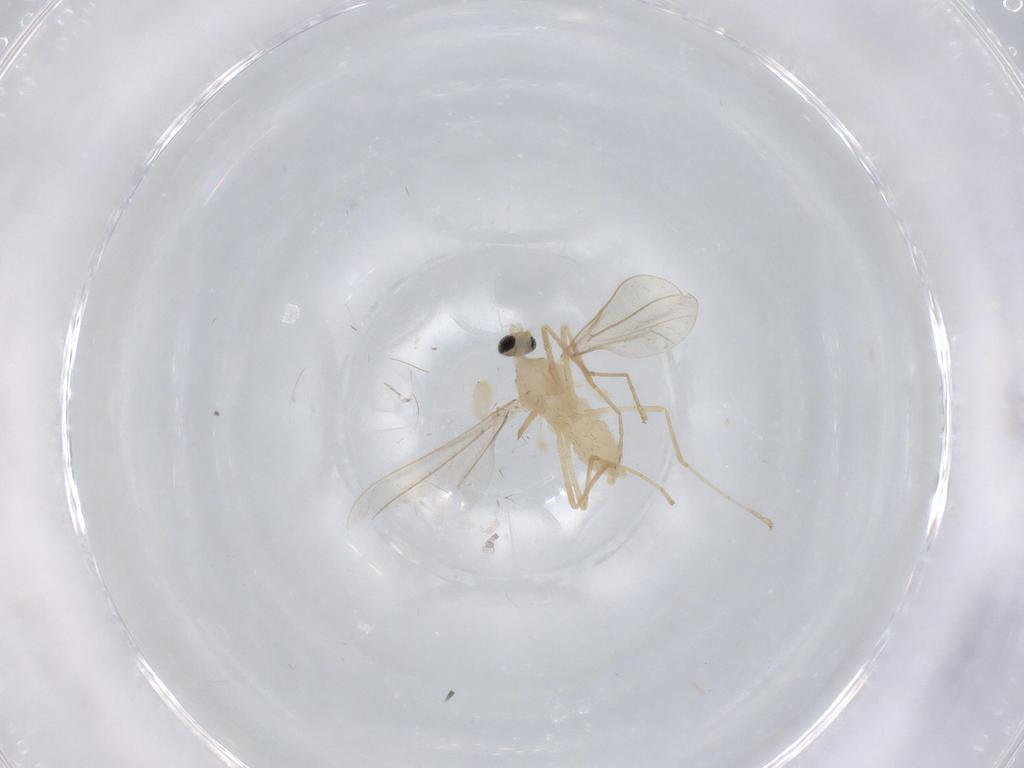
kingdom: Animalia
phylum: Arthropoda
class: Insecta
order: Diptera
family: Cecidomyiidae
